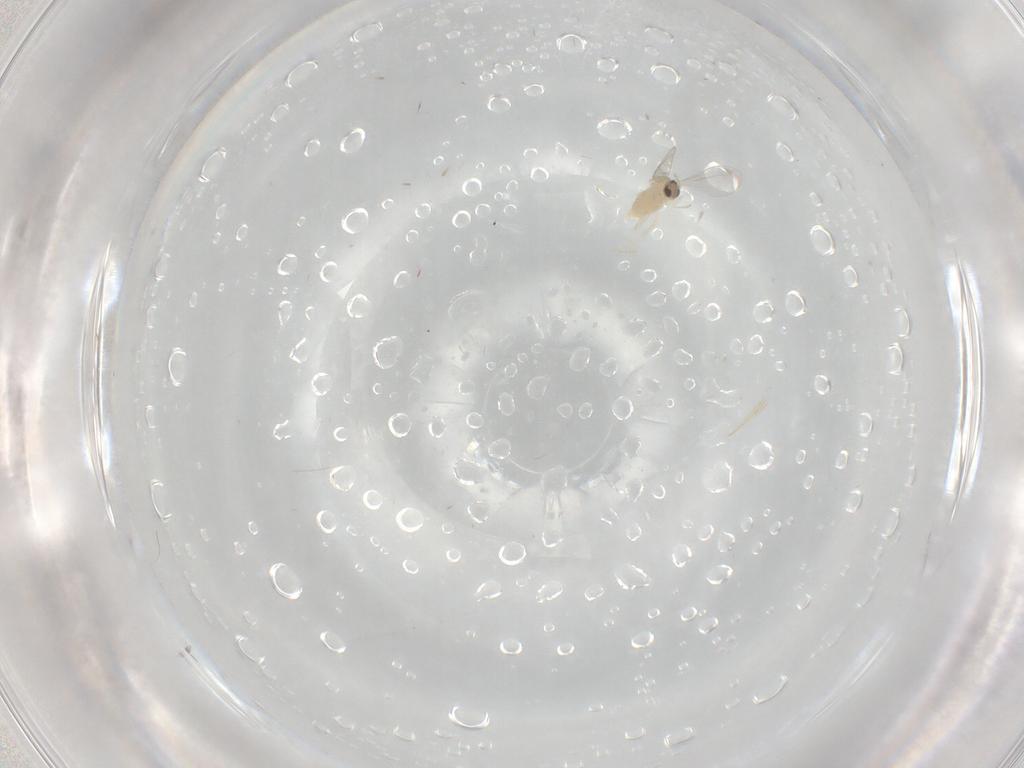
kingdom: Animalia
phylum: Arthropoda
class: Insecta
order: Diptera
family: Cecidomyiidae
